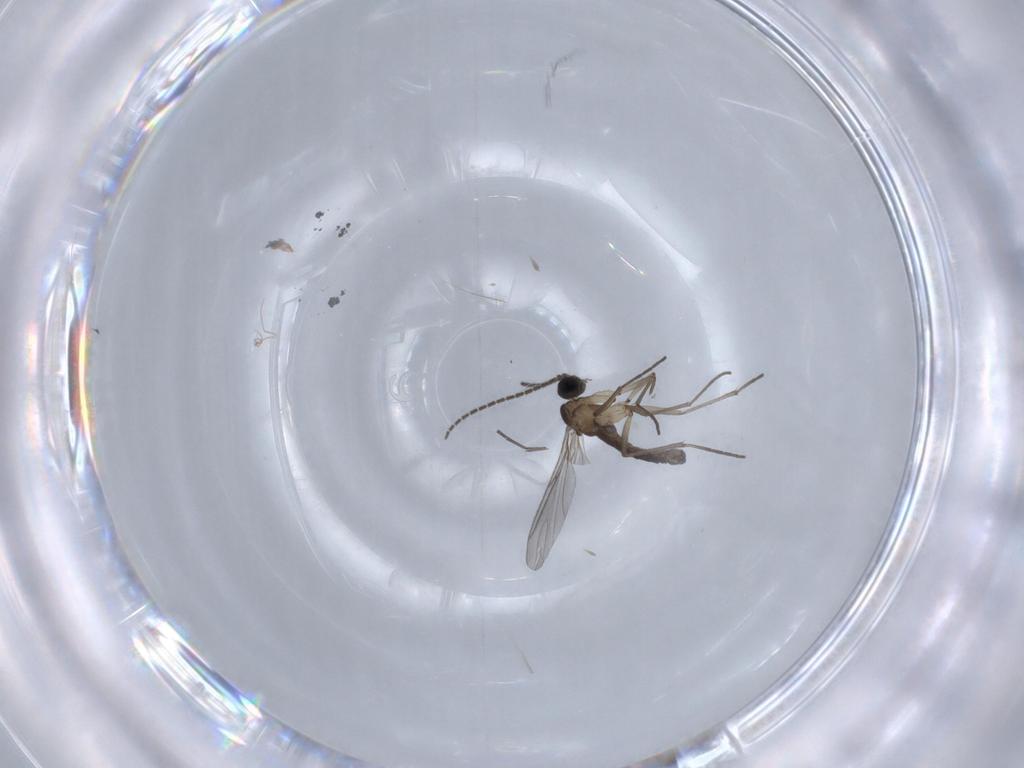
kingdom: Animalia
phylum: Arthropoda
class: Insecta
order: Diptera
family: Sciaridae
